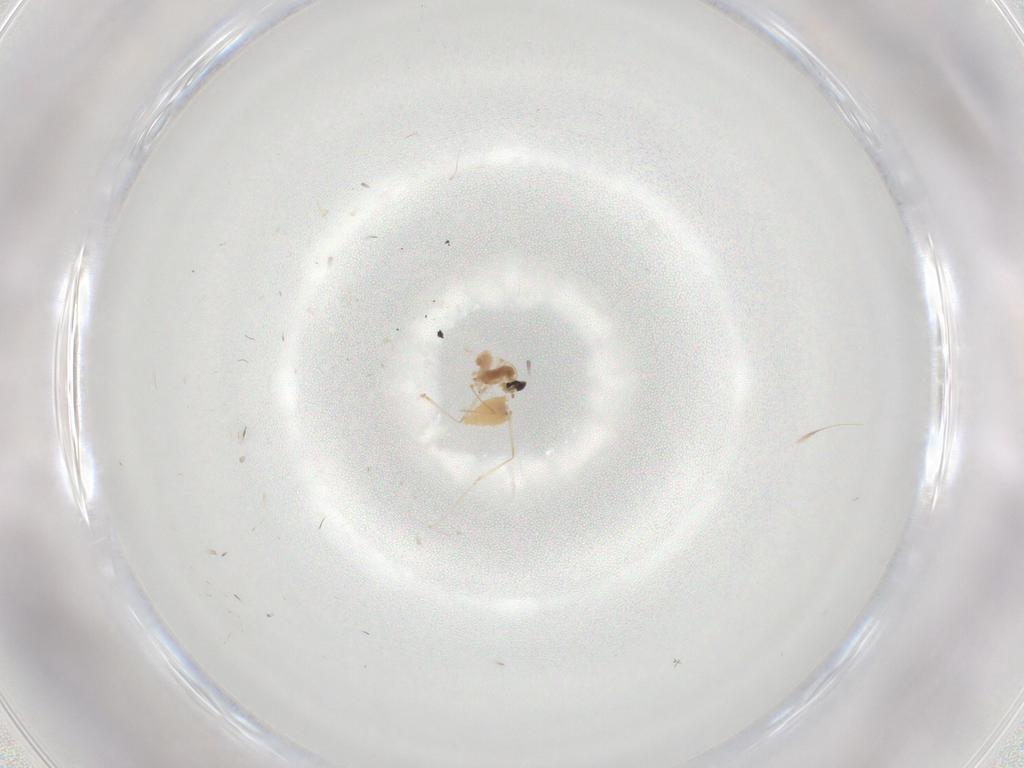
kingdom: Animalia
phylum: Arthropoda
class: Insecta
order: Diptera
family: Cecidomyiidae
